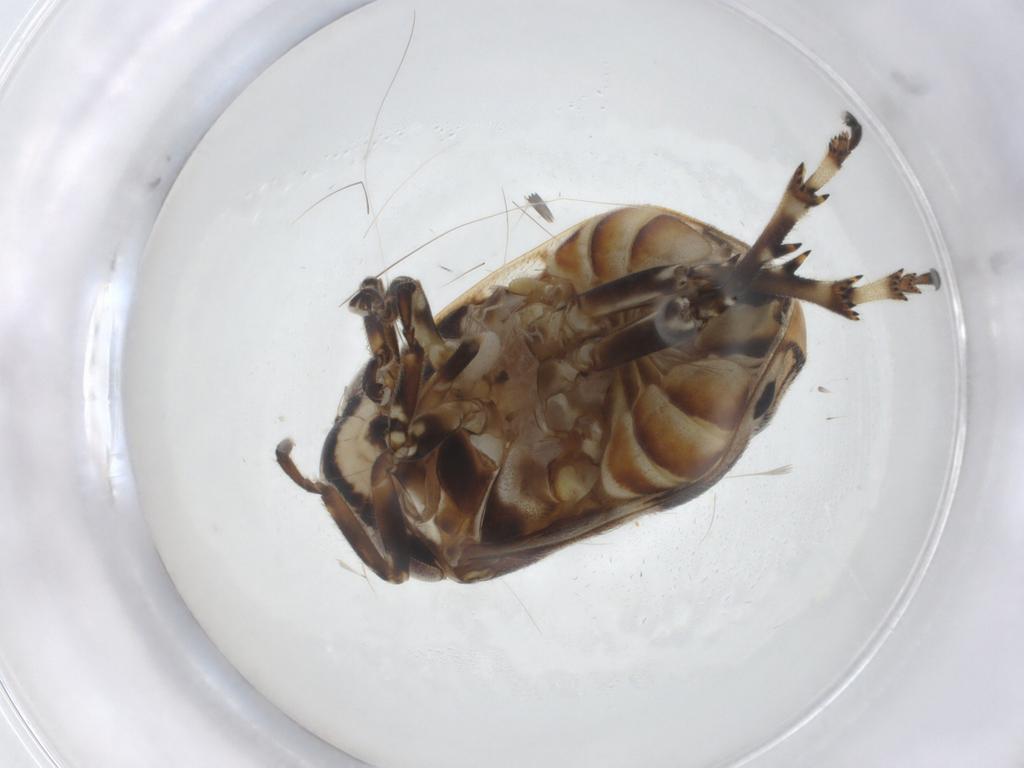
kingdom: Animalia
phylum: Arthropoda
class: Insecta
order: Hemiptera
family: Clastopteridae
